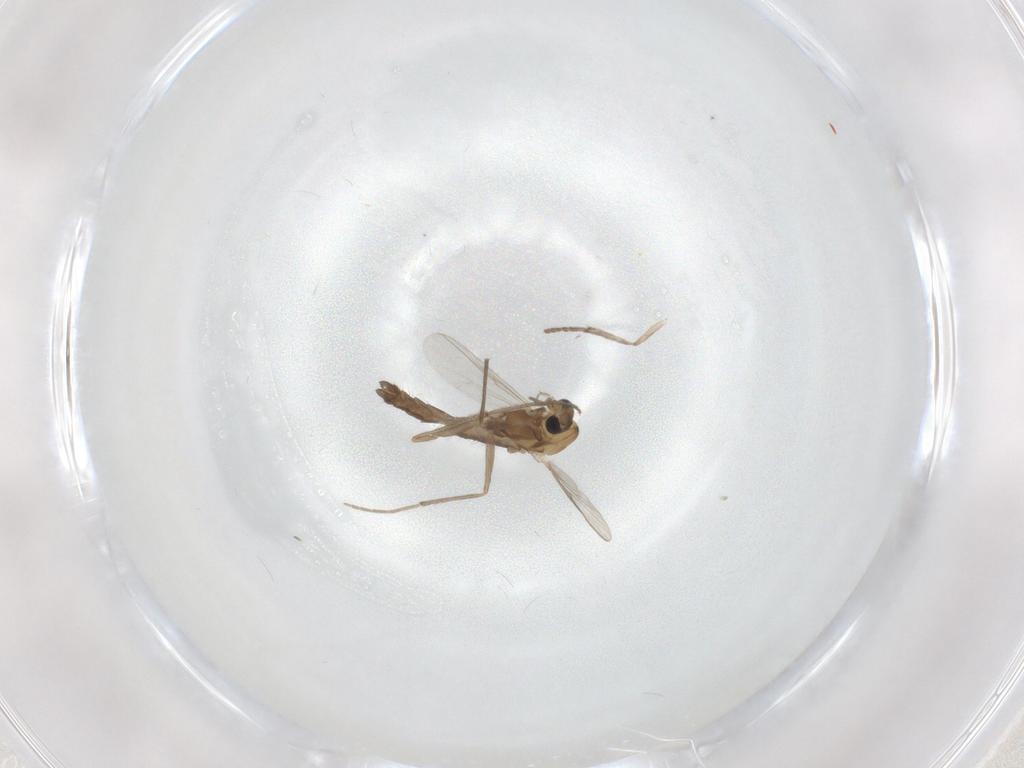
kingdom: Animalia
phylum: Arthropoda
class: Insecta
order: Diptera
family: Chironomidae
